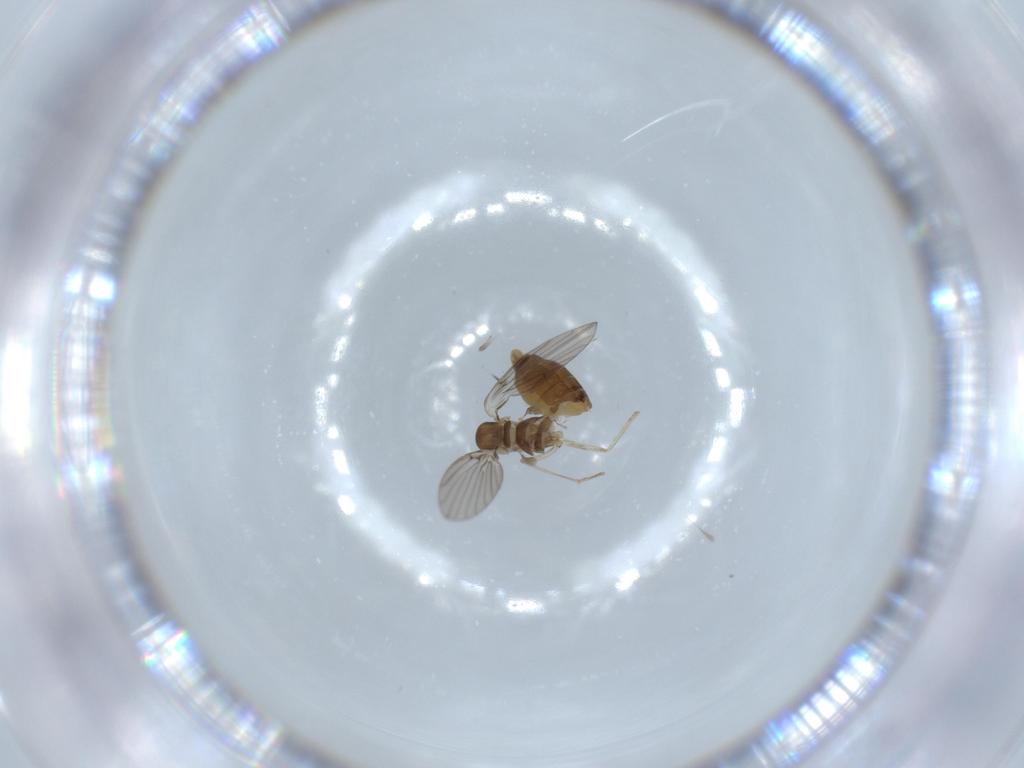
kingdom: Animalia
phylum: Arthropoda
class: Insecta
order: Diptera
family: Ceratopogonidae
